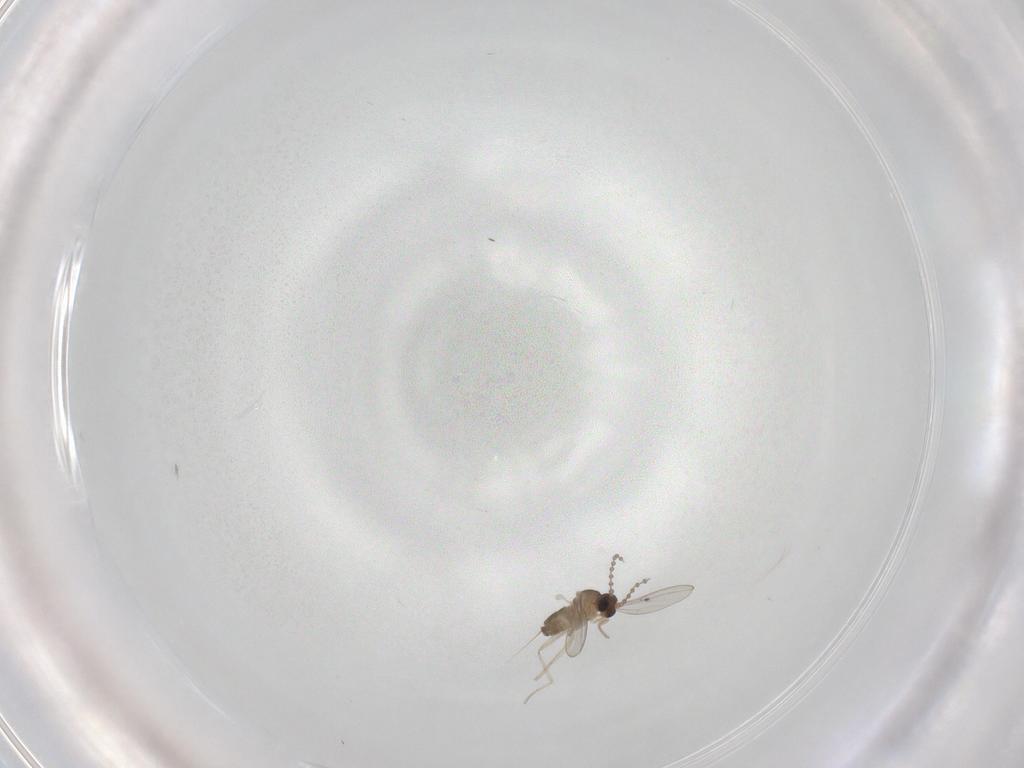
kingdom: Animalia
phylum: Arthropoda
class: Insecta
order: Diptera
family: Cecidomyiidae
